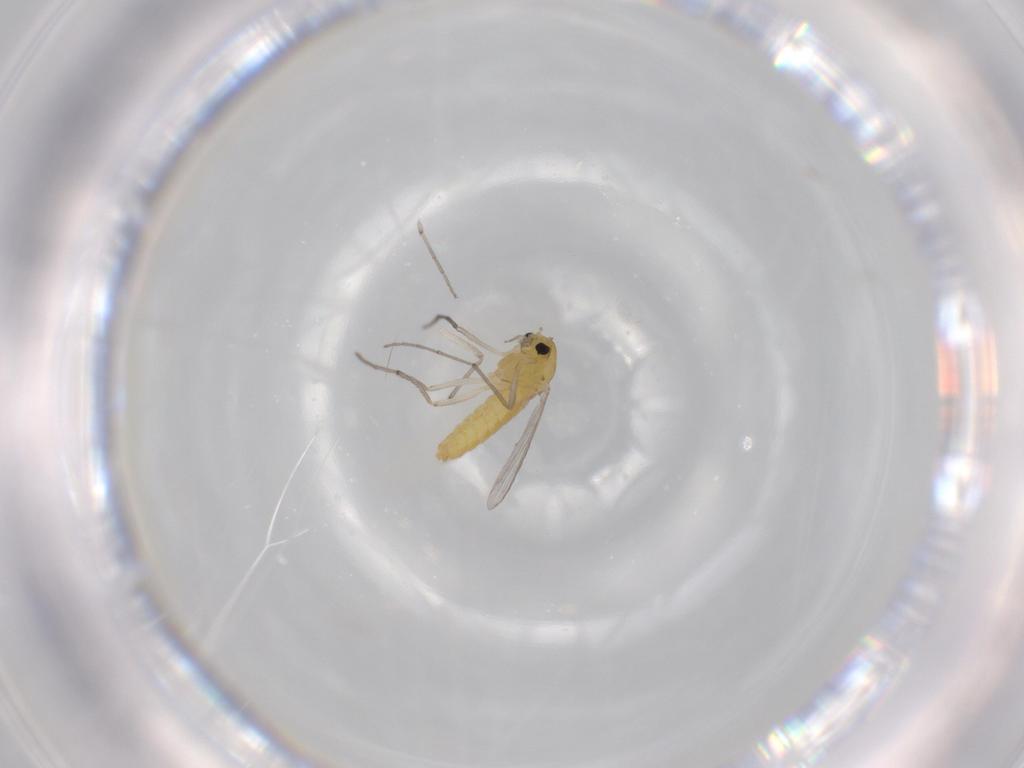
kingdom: Animalia
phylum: Arthropoda
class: Insecta
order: Diptera
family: Chironomidae
